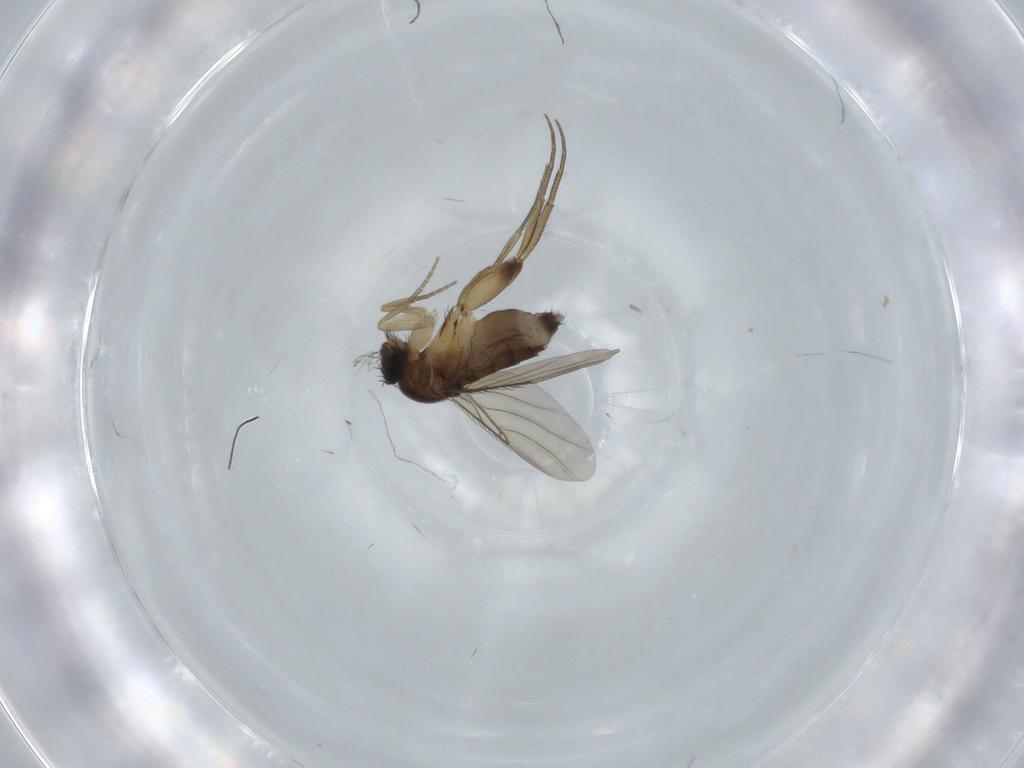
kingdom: Animalia
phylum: Arthropoda
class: Insecta
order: Diptera
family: Phoridae
